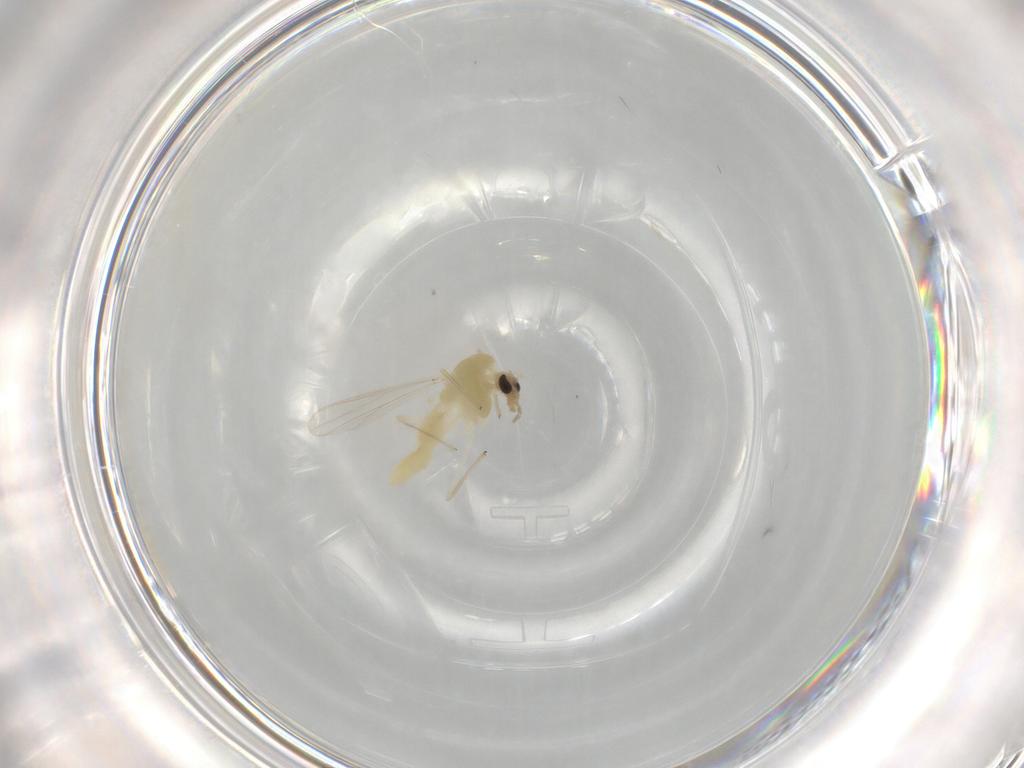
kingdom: Animalia
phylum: Arthropoda
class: Insecta
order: Diptera
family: Chironomidae
